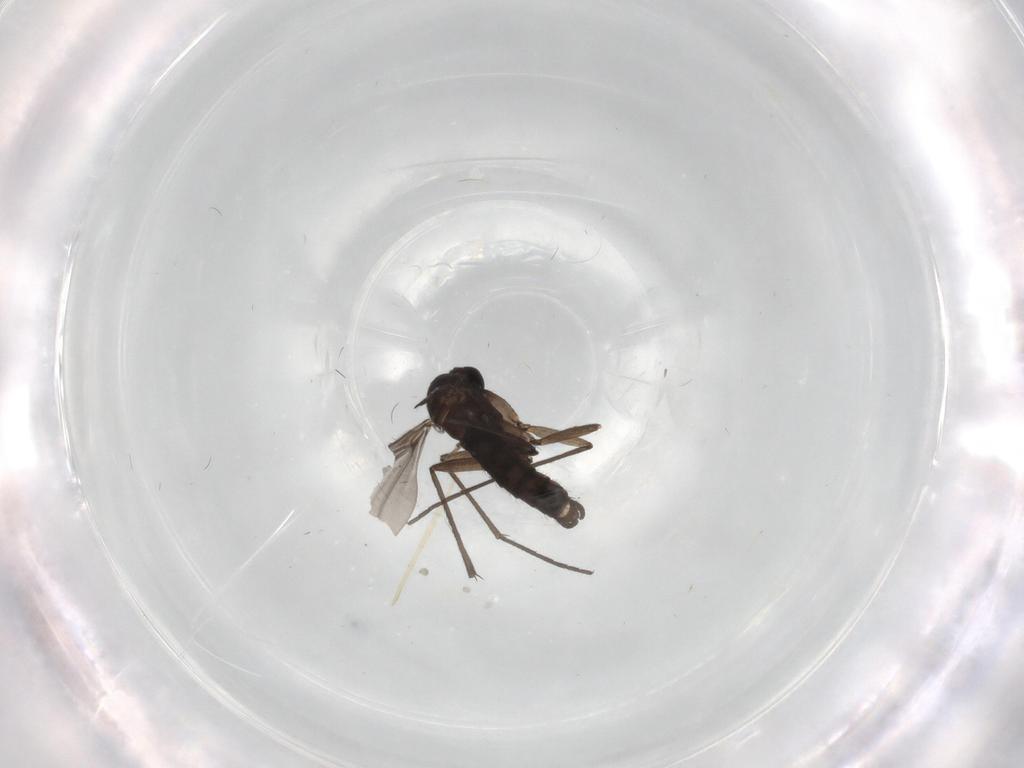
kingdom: Animalia
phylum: Arthropoda
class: Insecta
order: Diptera
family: Sciaridae
